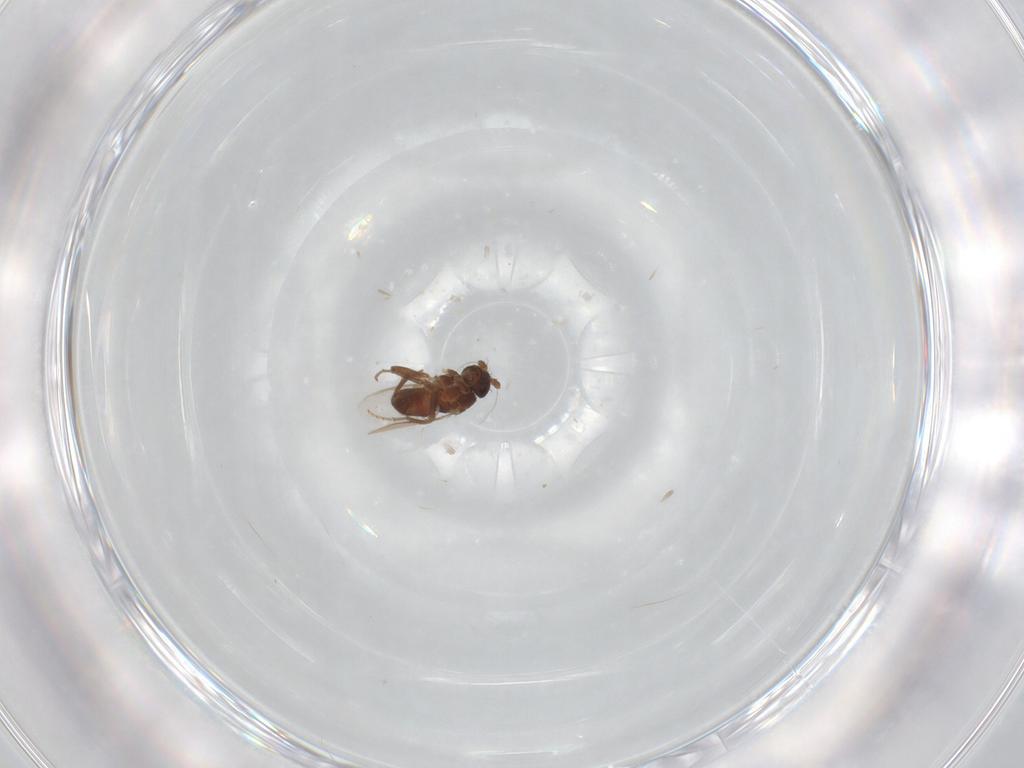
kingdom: Animalia
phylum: Arthropoda
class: Insecta
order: Diptera
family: Sphaeroceridae
